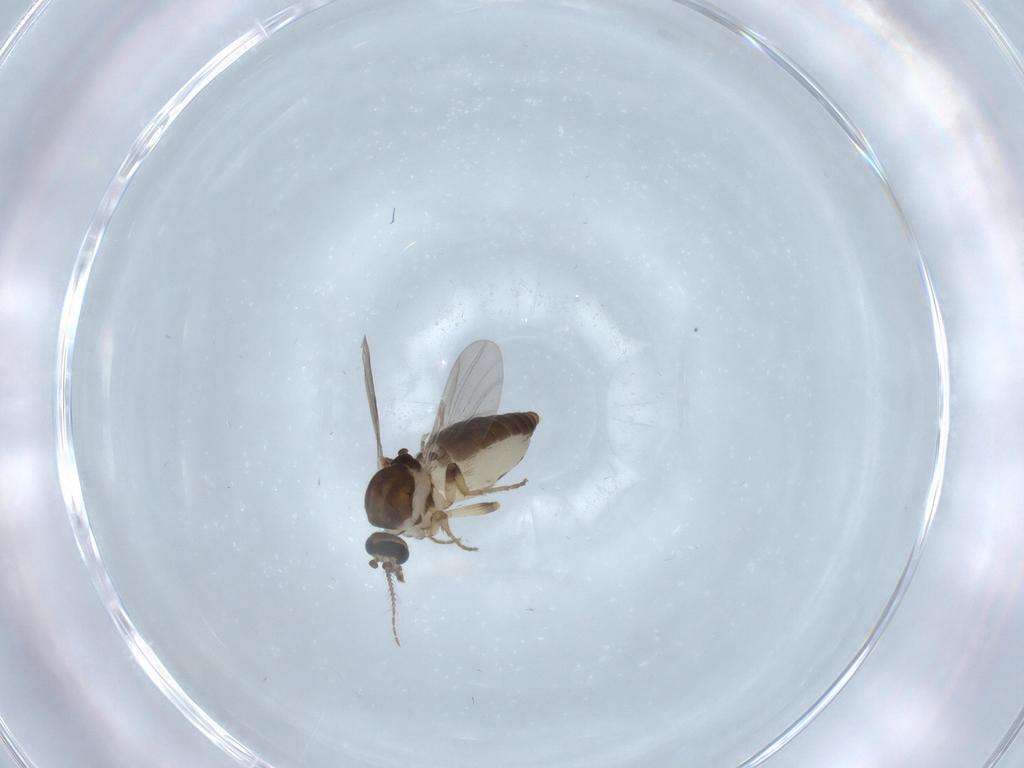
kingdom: Animalia
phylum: Arthropoda
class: Insecta
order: Diptera
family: Ceratopogonidae
